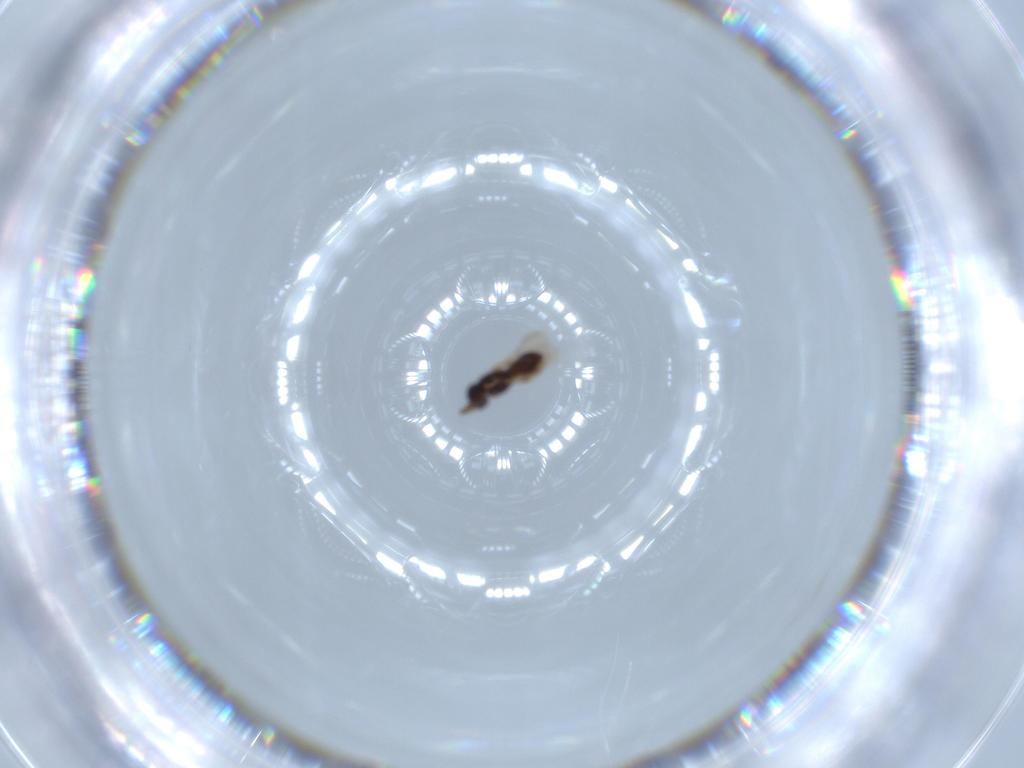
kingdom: Animalia
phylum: Arthropoda
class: Insecta
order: Hymenoptera
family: Scelionidae
